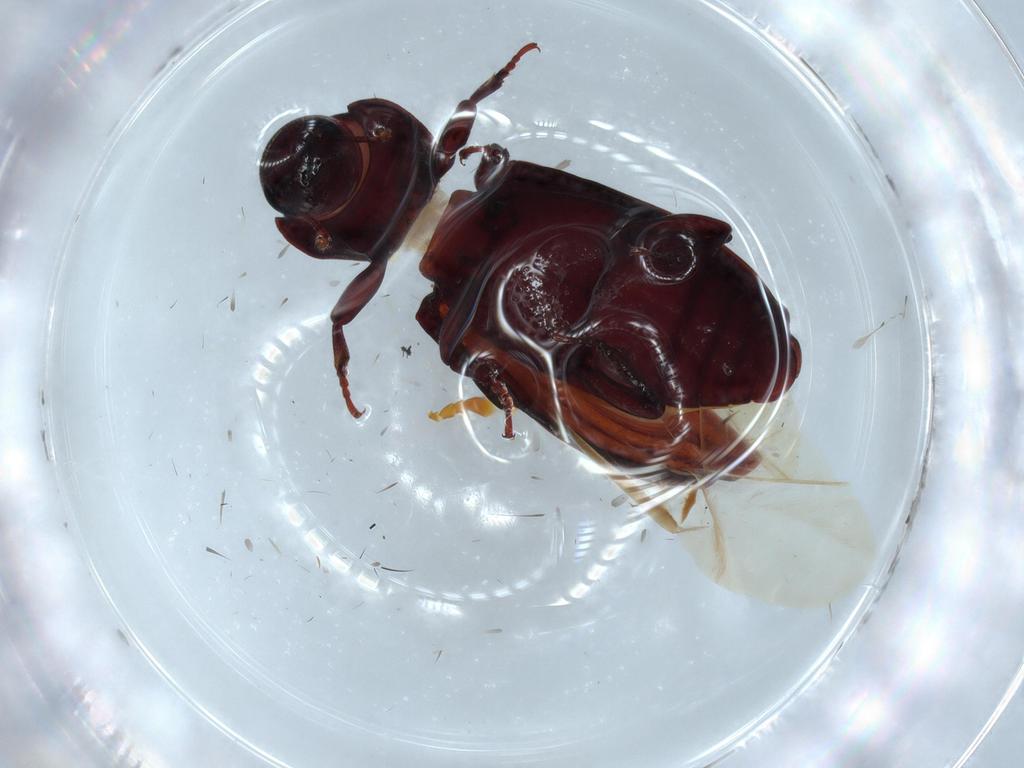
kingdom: Animalia
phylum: Arthropoda
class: Insecta
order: Coleoptera
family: Bothrideridae
